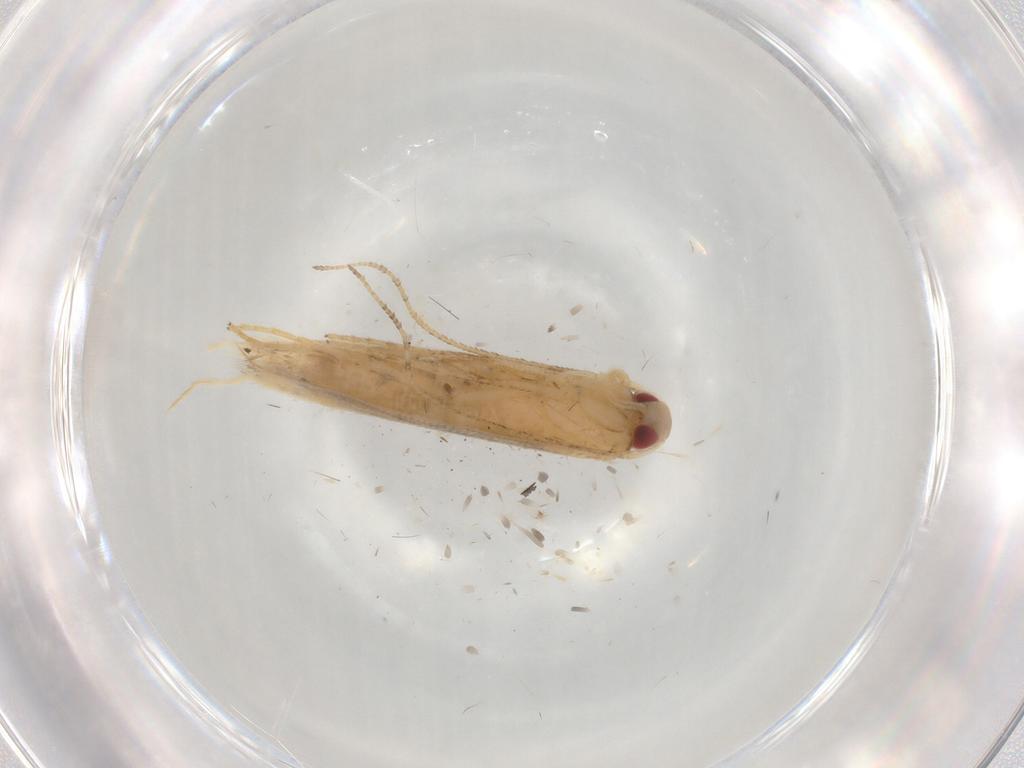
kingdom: Animalia
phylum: Arthropoda
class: Insecta
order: Lepidoptera
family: Cosmopterigidae
